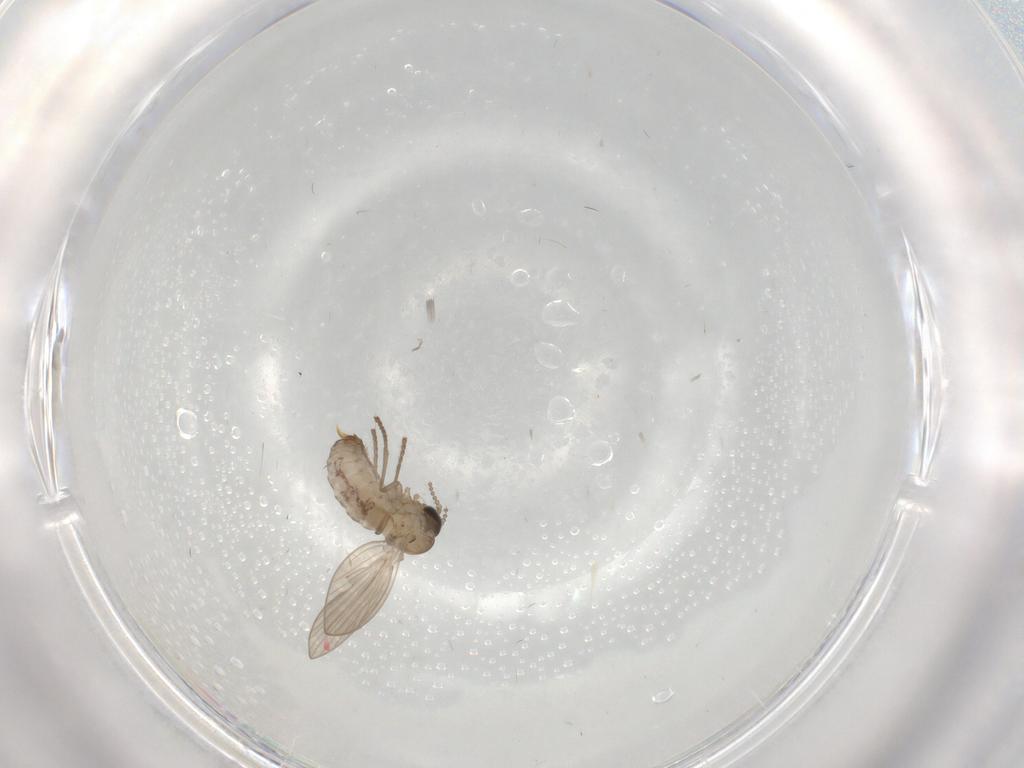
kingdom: Animalia
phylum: Arthropoda
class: Insecta
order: Diptera
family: Psychodidae
